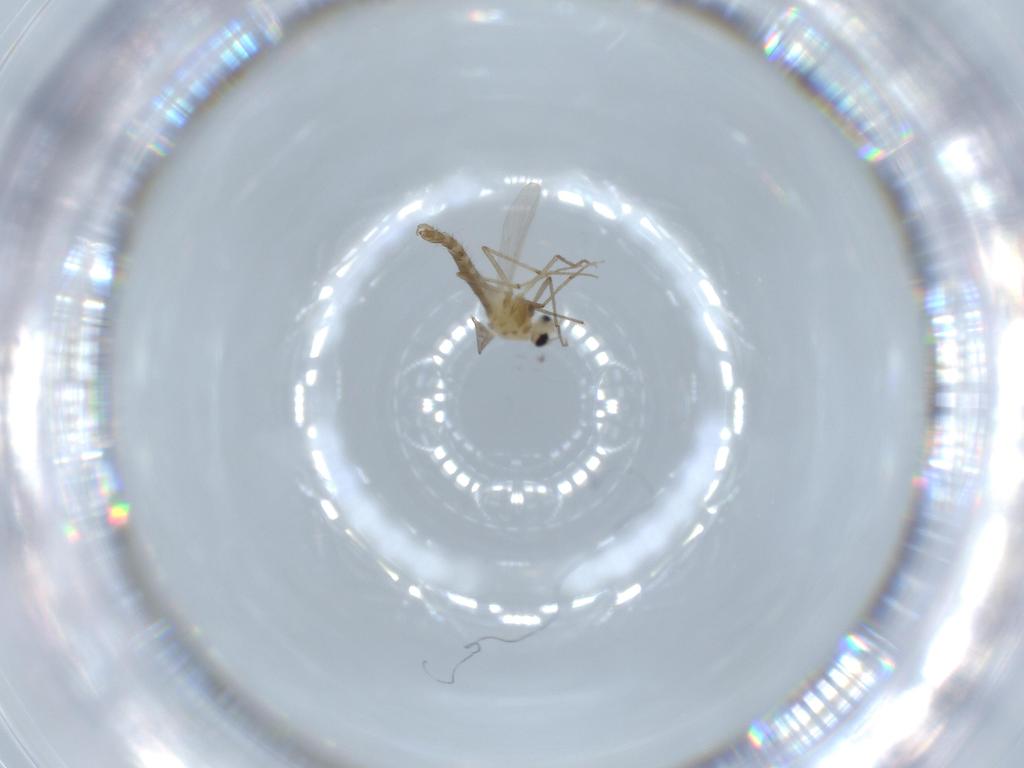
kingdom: Animalia
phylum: Arthropoda
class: Insecta
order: Diptera
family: Chironomidae
